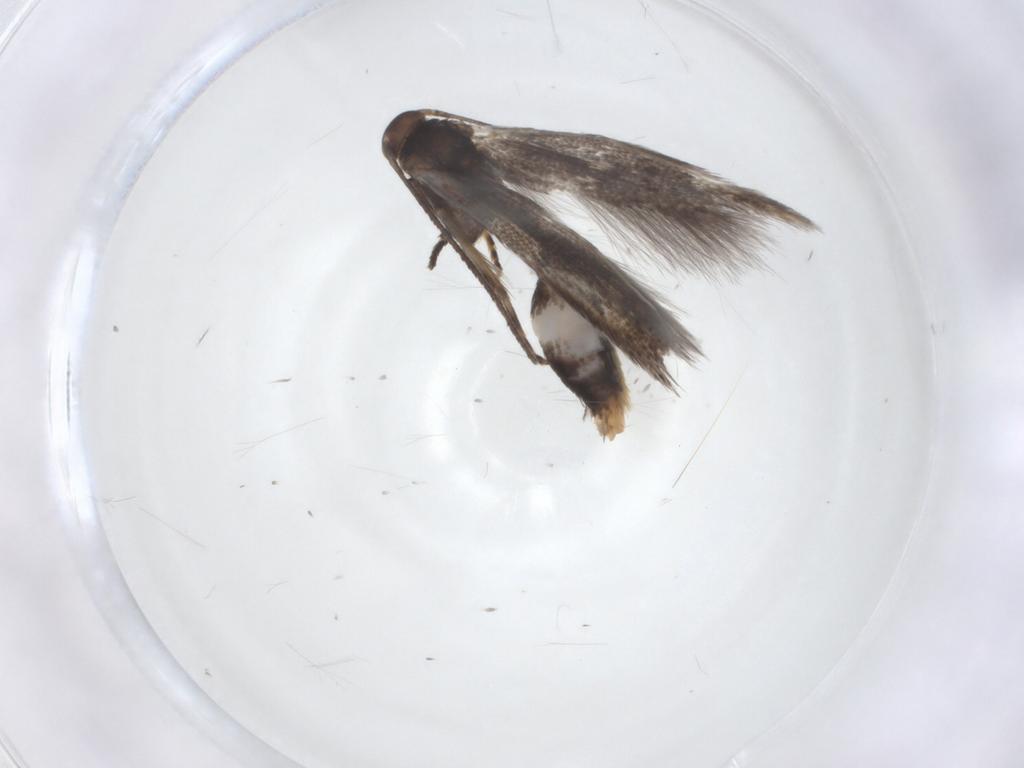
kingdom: Animalia
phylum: Arthropoda
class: Insecta
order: Lepidoptera
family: Elachistidae
